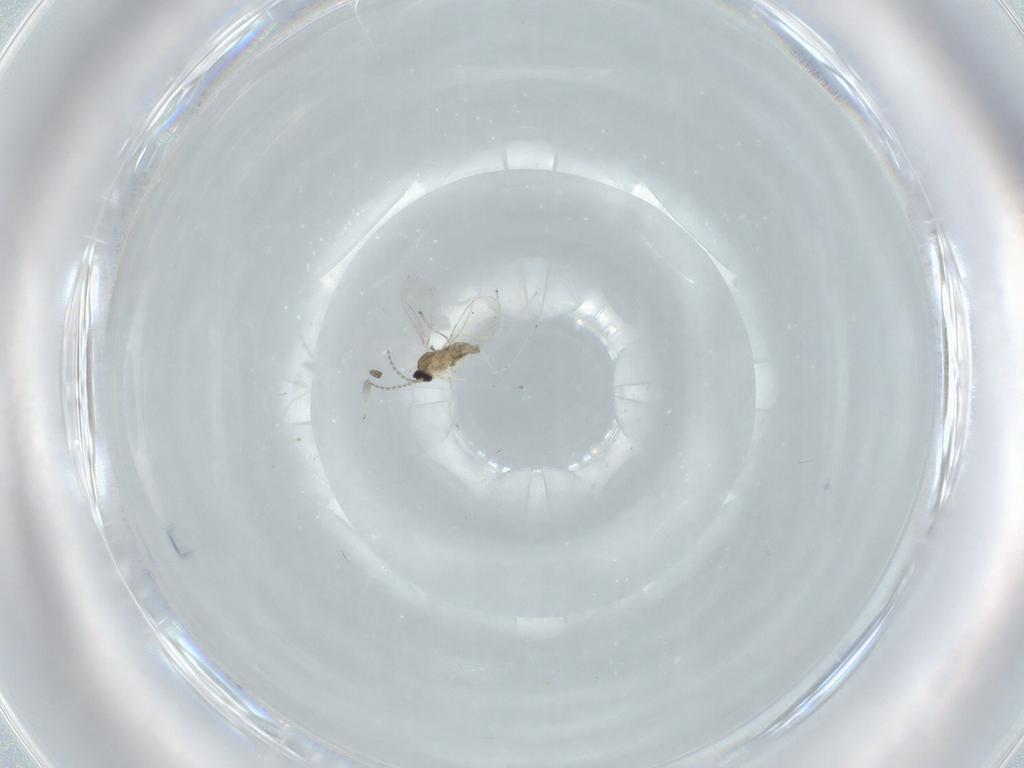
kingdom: Animalia
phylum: Arthropoda
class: Insecta
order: Diptera
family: Cecidomyiidae
